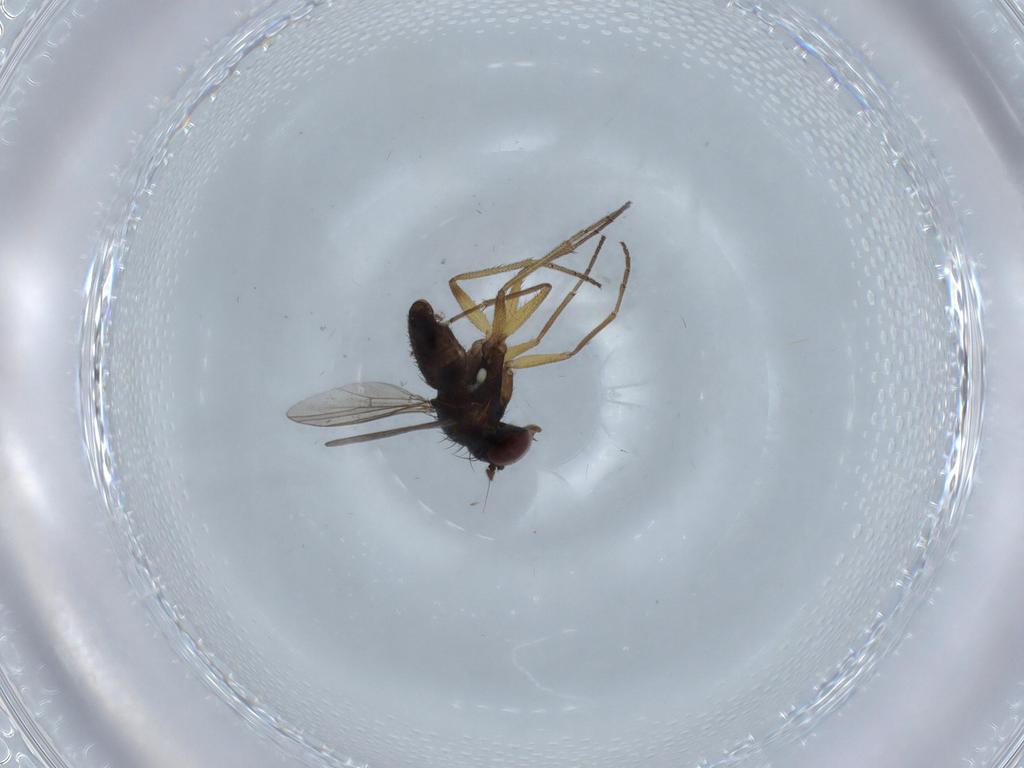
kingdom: Animalia
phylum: Arthropoda
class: Insecta
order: Diptera
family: Dolichopodidae
